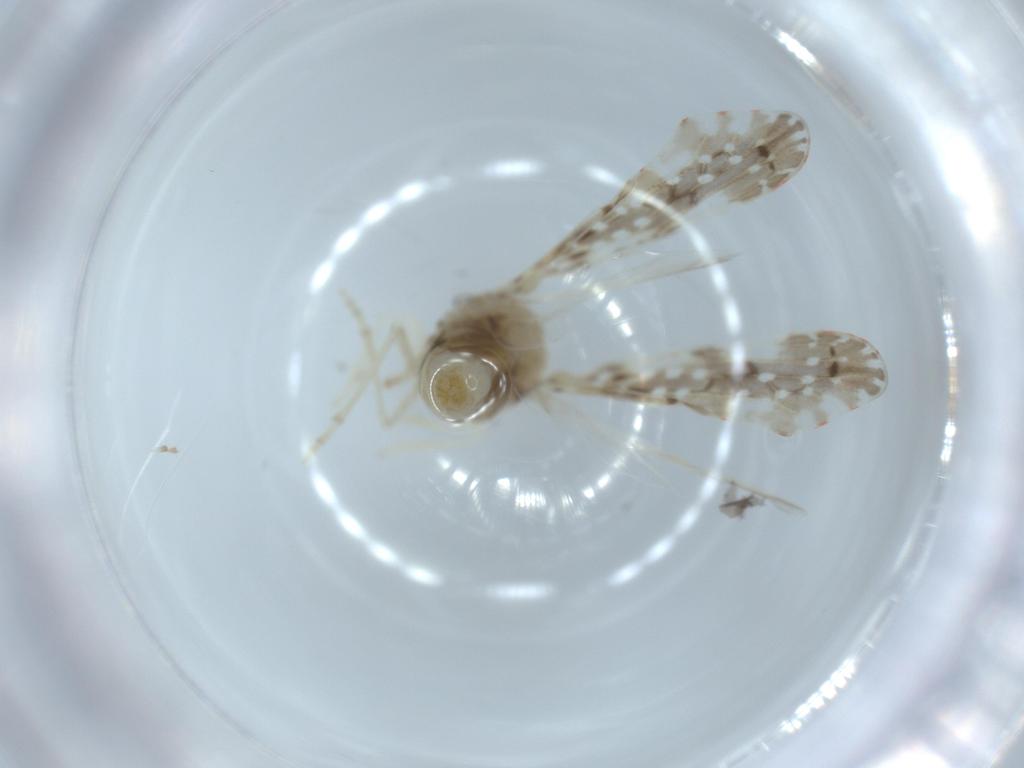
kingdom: Animalia
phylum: Arthropoda
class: Insecta
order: Hemiptera
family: Derbidae
